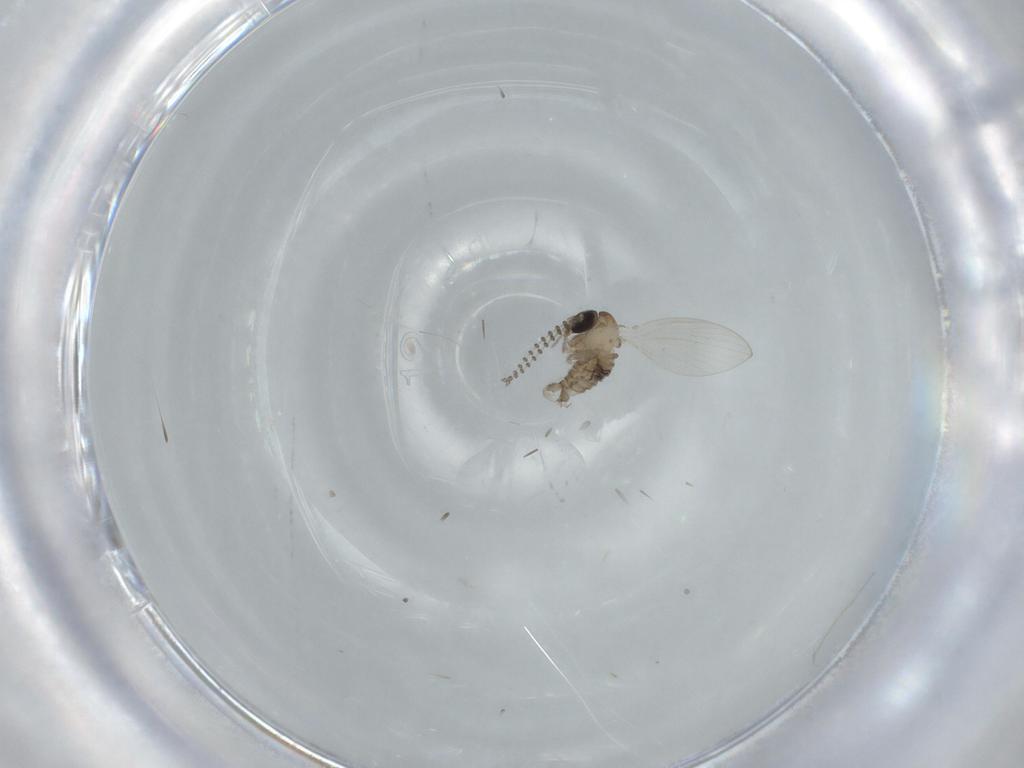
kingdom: Animalia
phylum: Arthropoda
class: Insecta
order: Diptera
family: Psychodidae
